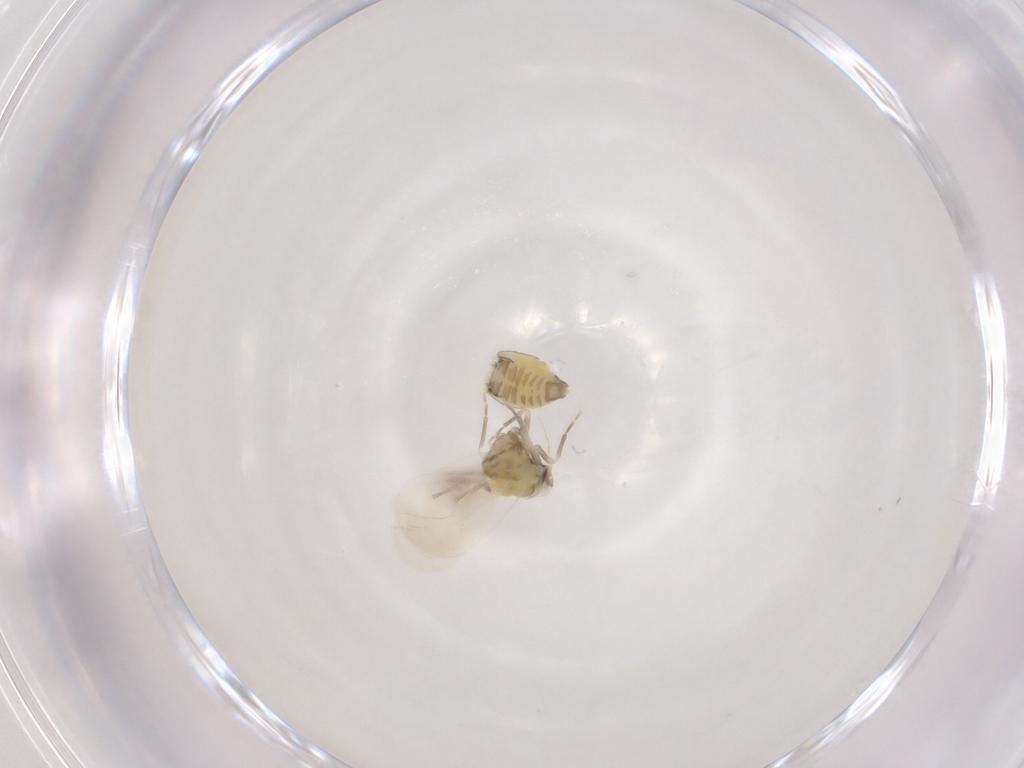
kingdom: Animalia
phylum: Arthropoda
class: Insecta
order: Hemiptera
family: Aleyrodidae
